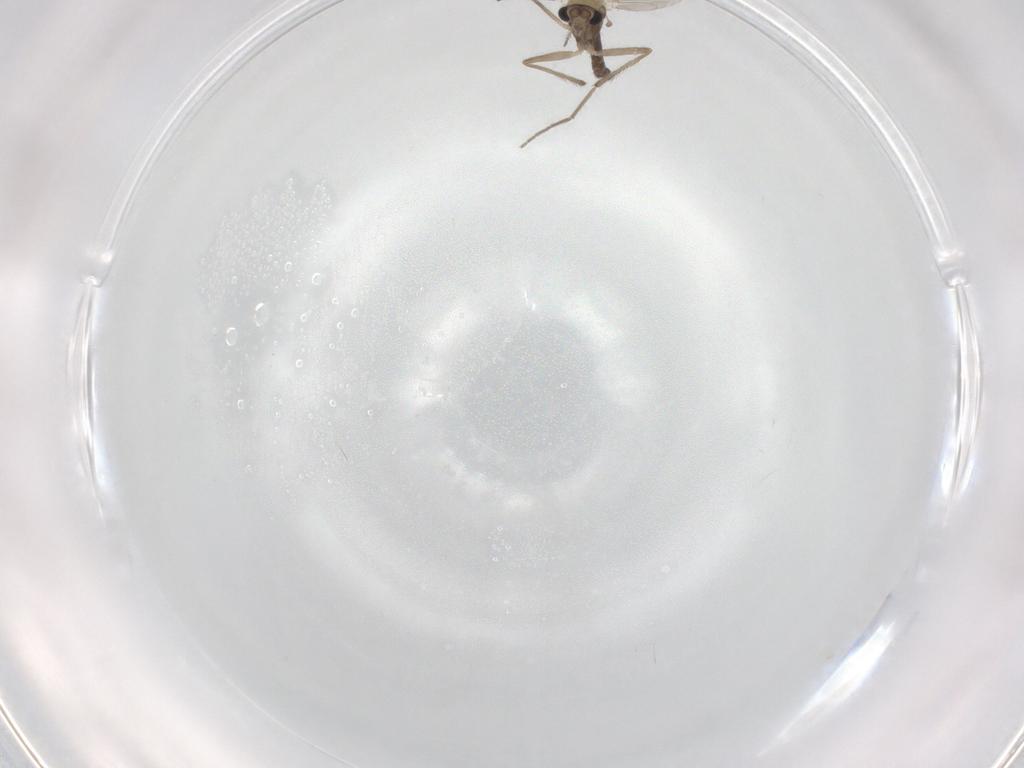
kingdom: Animalia
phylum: Arthropoda
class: Insecta
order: Diptera
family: Chironomidae
